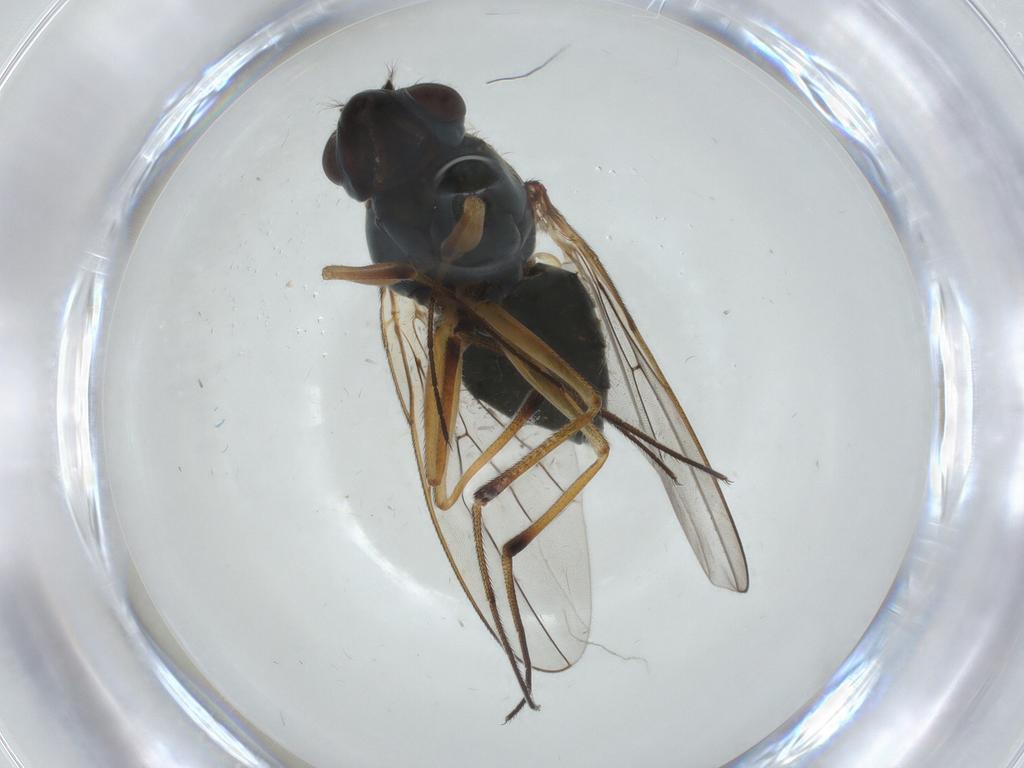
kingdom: Animalia
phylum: Arthropoda
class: Insecta
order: Diptera
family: Ephydridae
